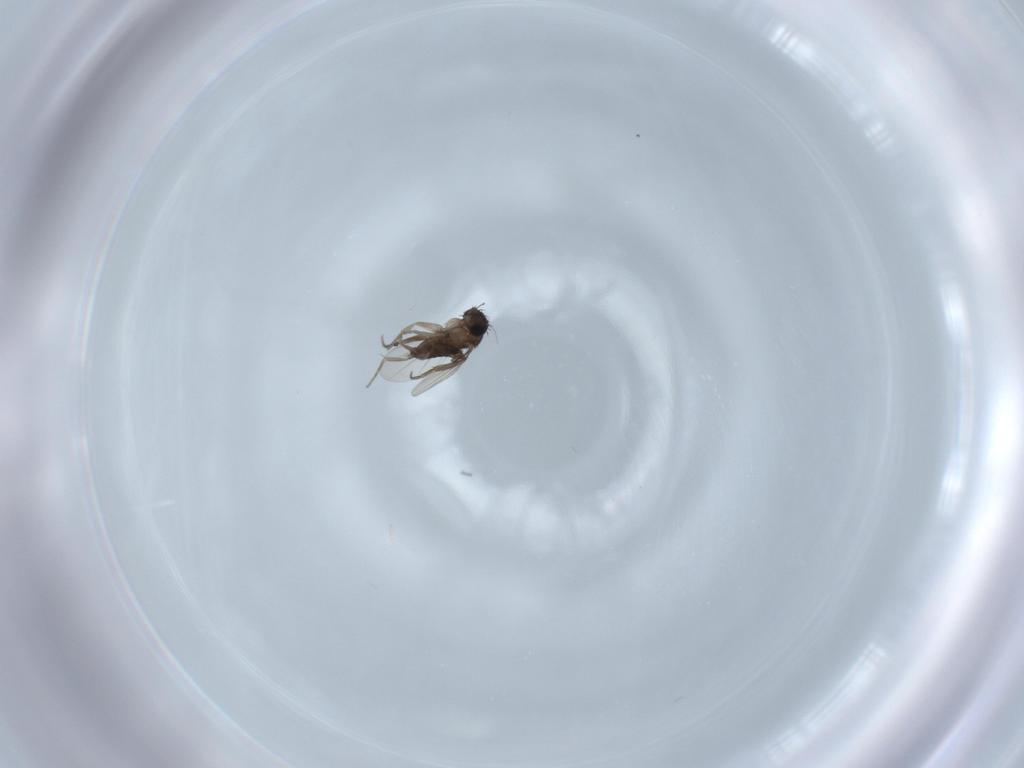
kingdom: Animalia
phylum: Arthropoda
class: Insecta
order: Diptera
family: Phoridae
